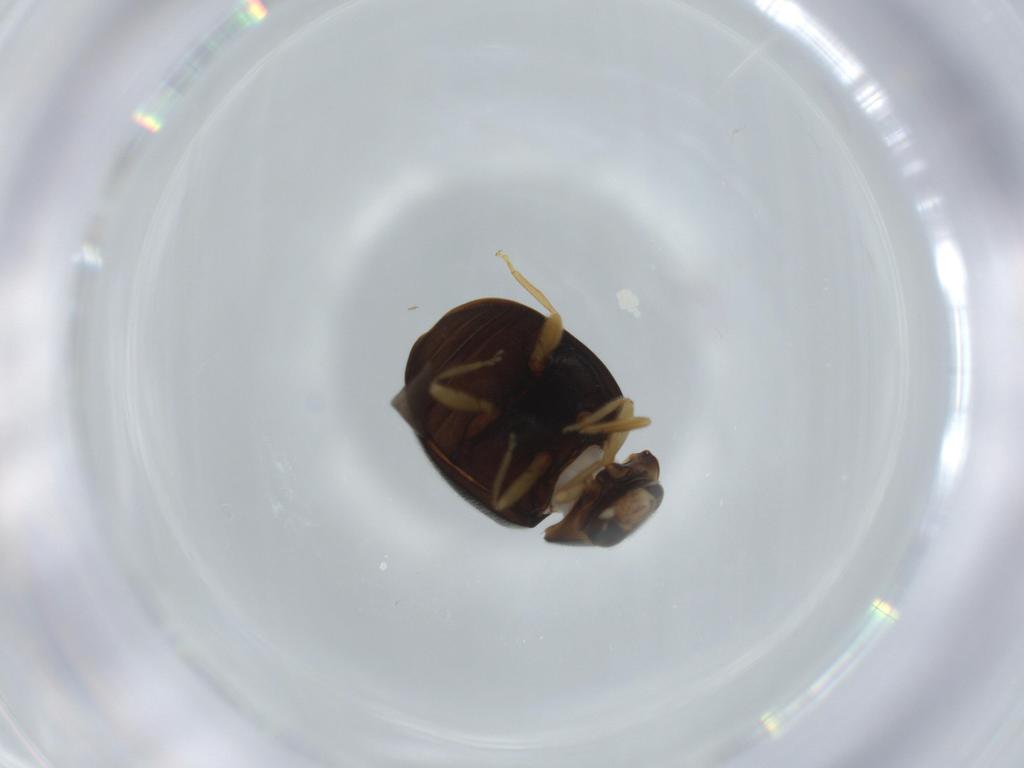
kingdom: Animalia
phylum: Arthropoda
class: Insecta
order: Coleoptera
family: Coccinellidae
